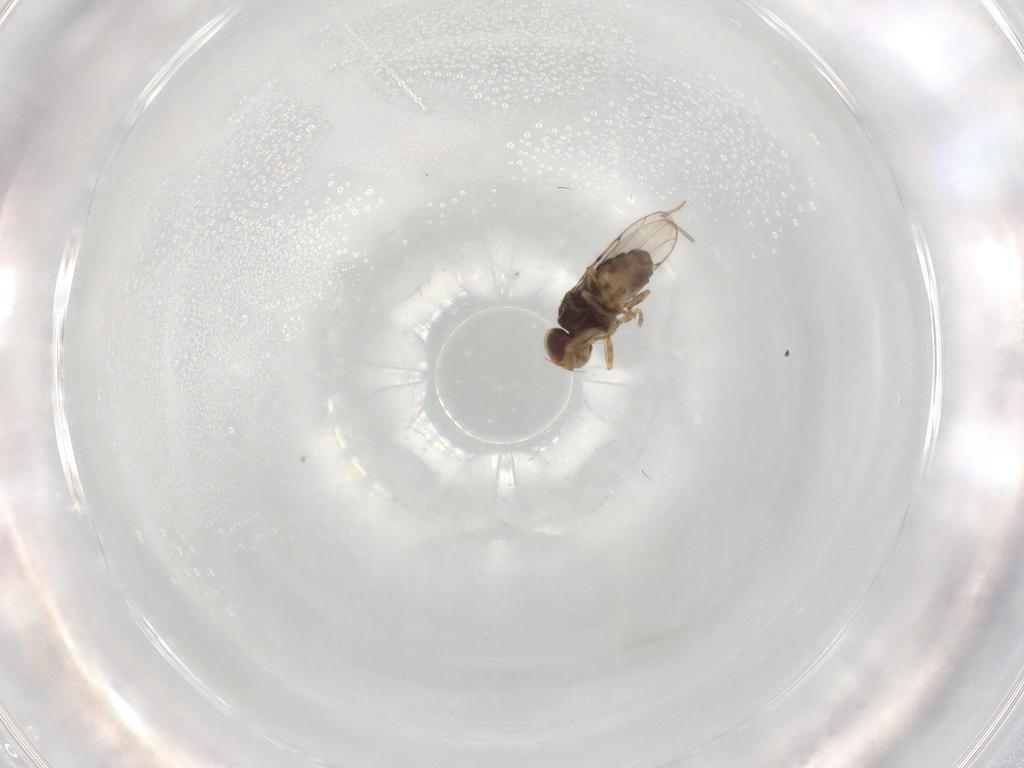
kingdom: Animalia
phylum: Arthropoda
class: Insecta
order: Diptera
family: Chloropidae
